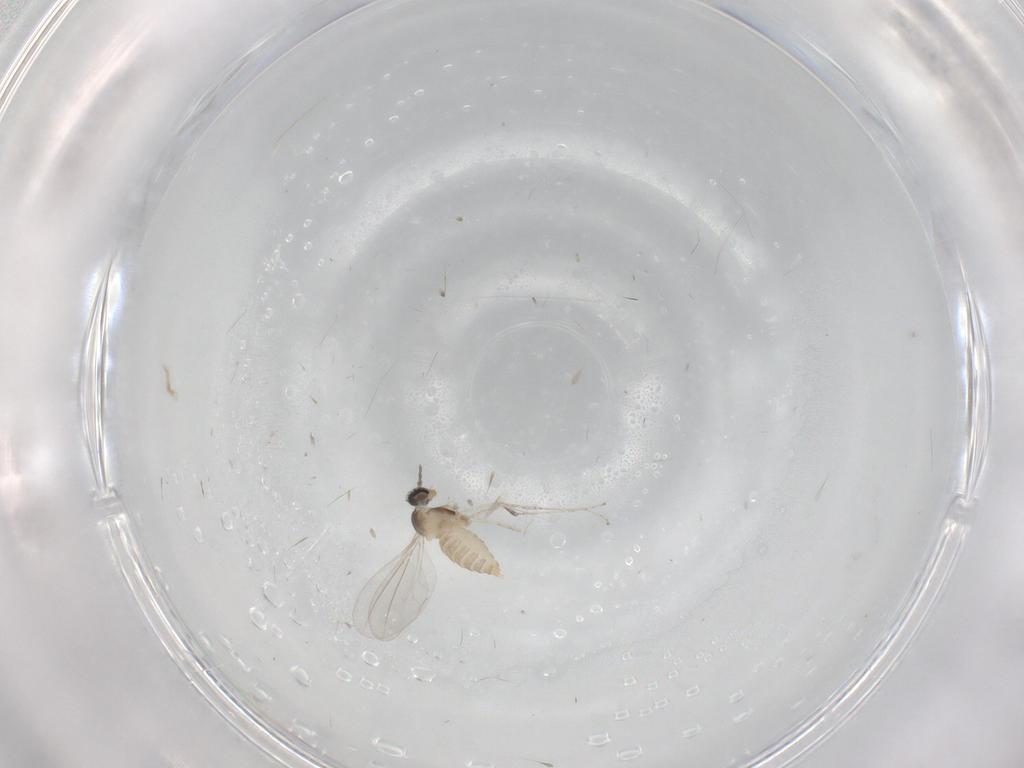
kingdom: Animalia
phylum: Arthropoda
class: Insecta
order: Diptera
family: Cecidomyiidae
